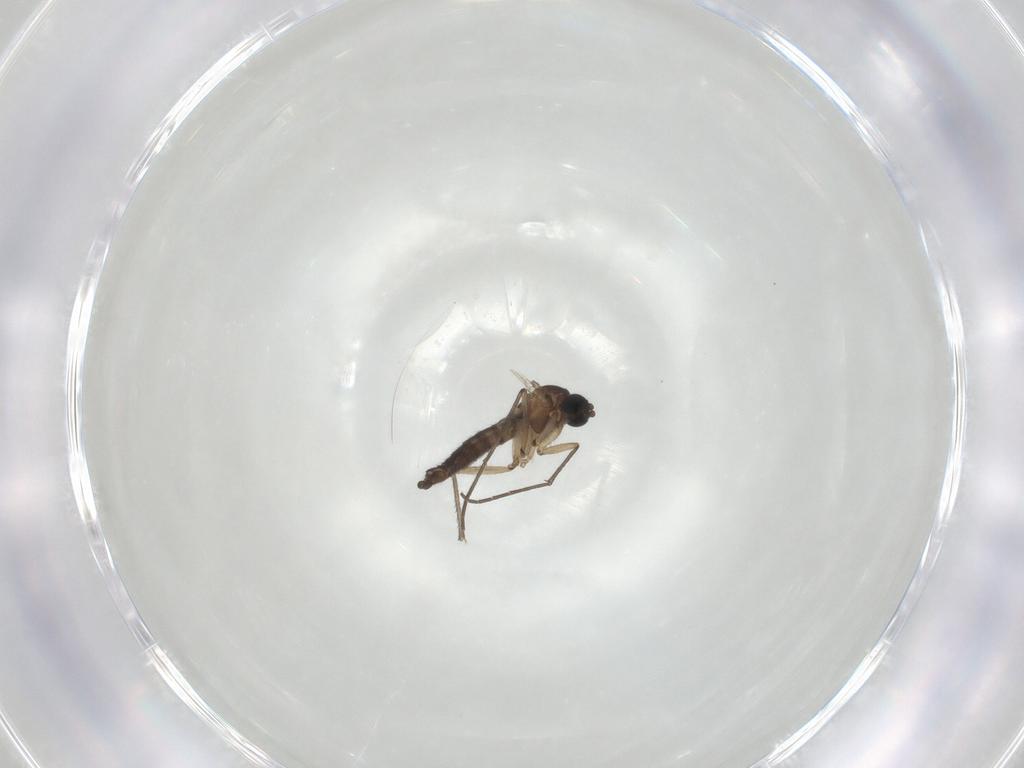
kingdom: Animalia
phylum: Arthropoda
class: Insecta
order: Diptera
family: Sciaridae
